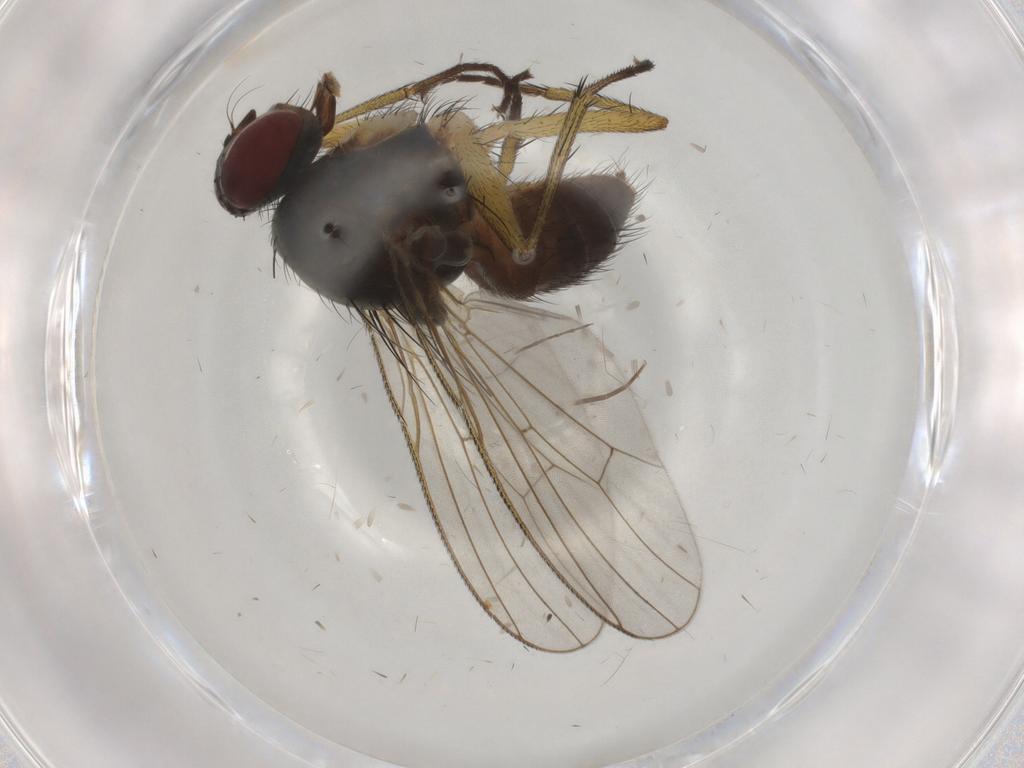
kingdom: Animalia
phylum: Arthropoda
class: Insecta
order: Diptera
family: Muscidae
